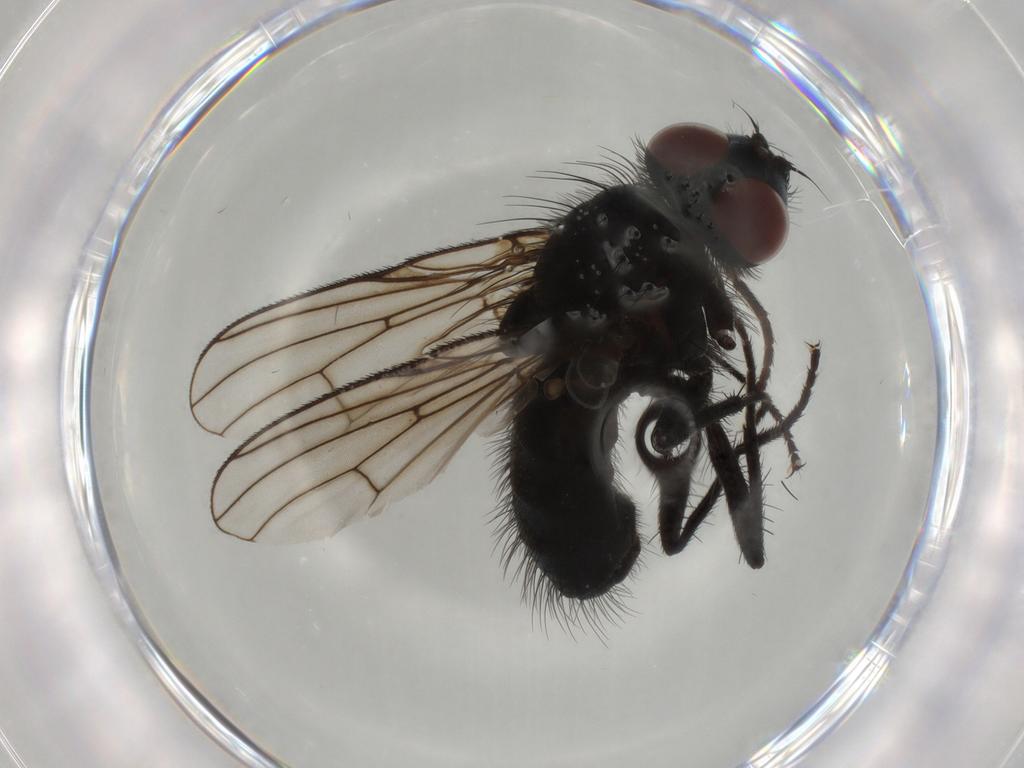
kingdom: Animalia
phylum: Arthropoda
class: Insecta
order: Diptera
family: Muscidae
